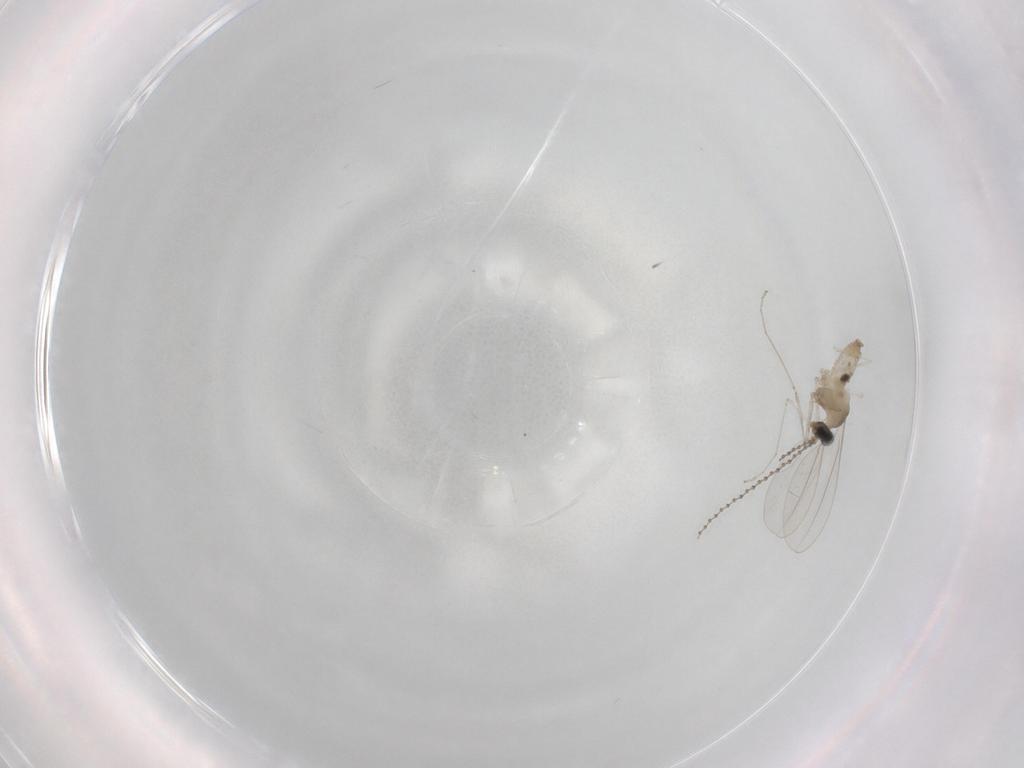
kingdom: Animalia
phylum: Arthropoda
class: Insecta
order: Diptera
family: Cecidomyiidae
